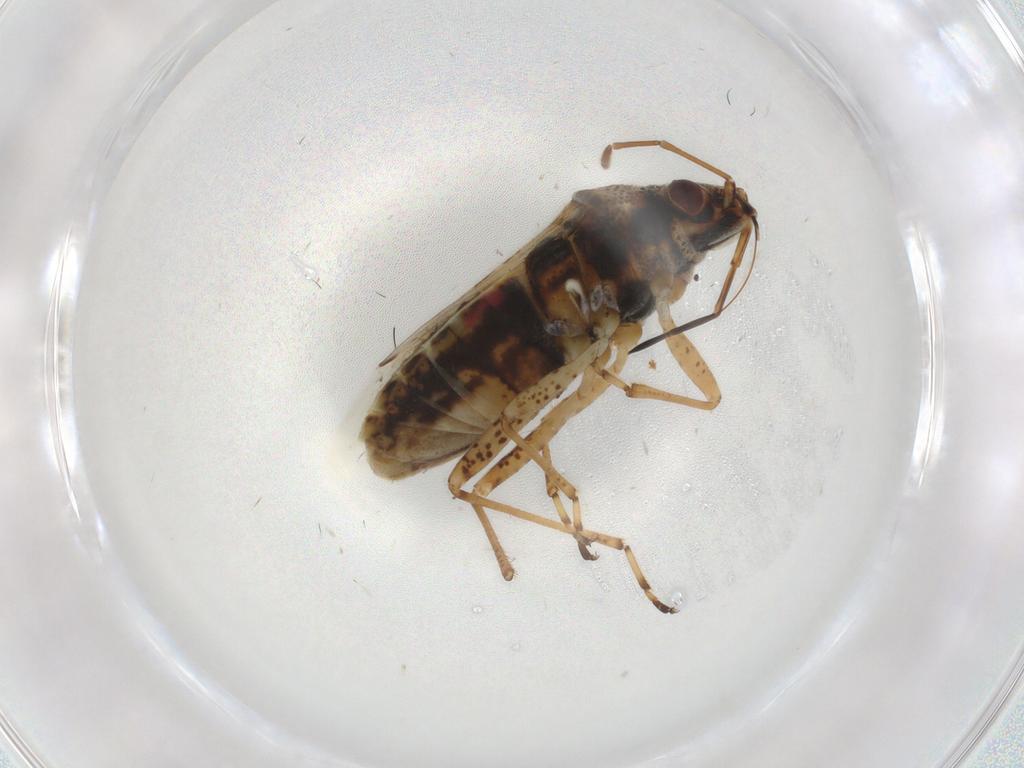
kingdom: Animalia
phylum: Arthropoda
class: Insecta
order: Hemiptera
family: Lygaeidae
